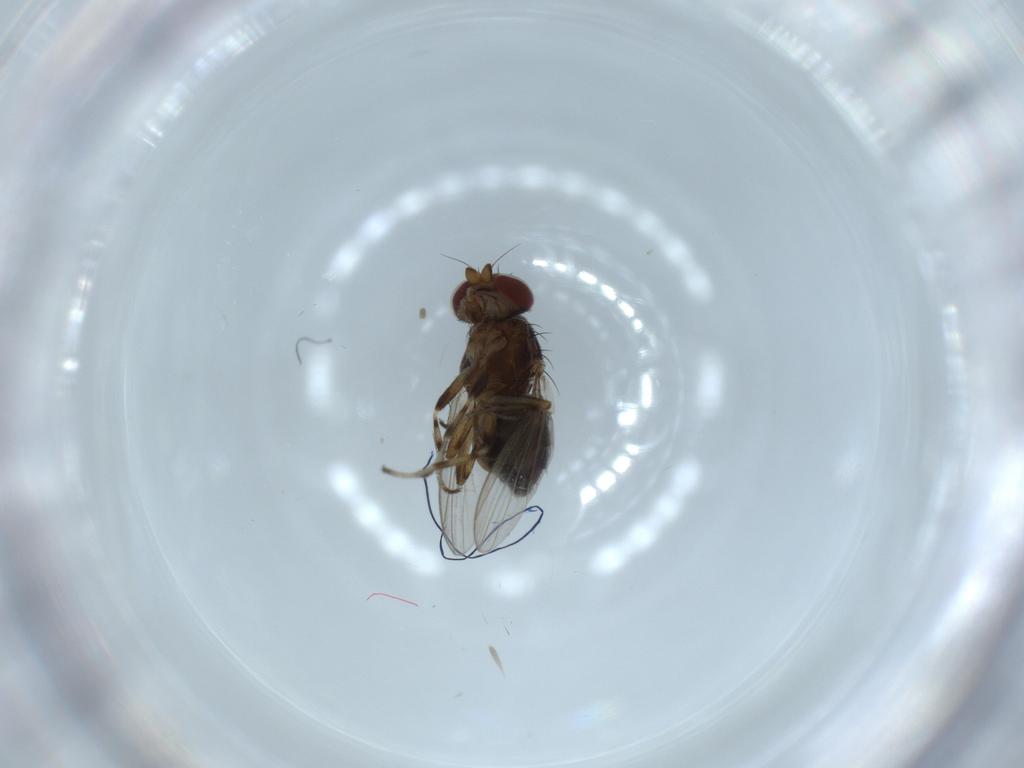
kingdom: Animalia
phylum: Arthropoda
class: Insecta
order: Diptera
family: Heleomyzidae
